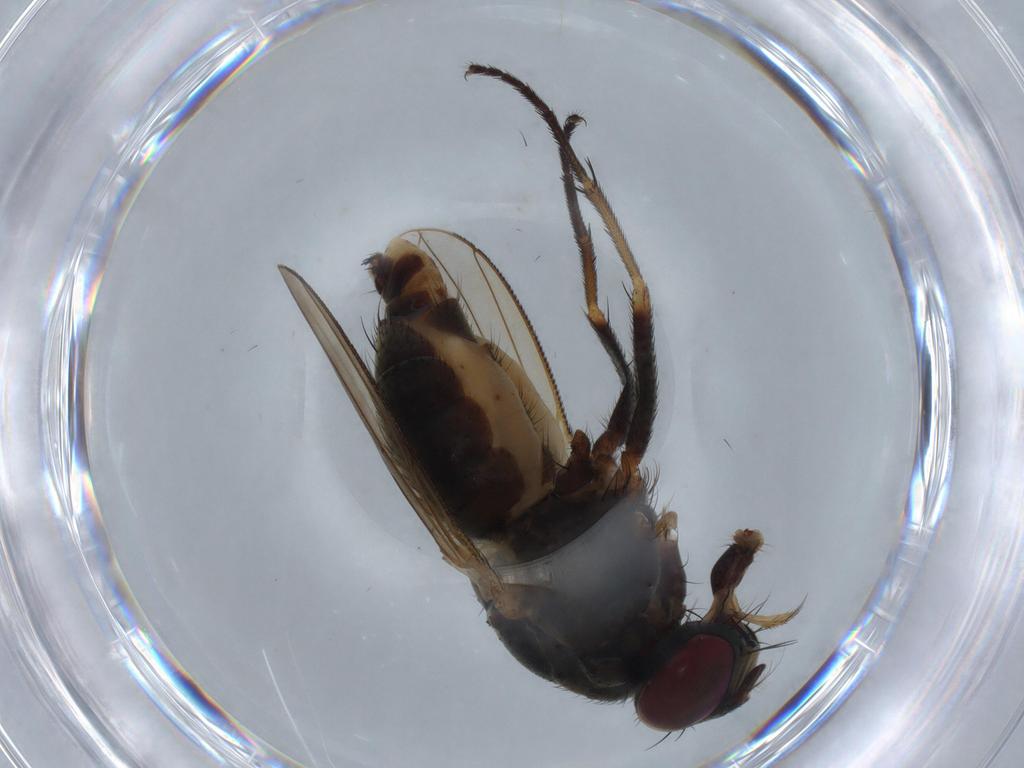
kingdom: Animalia
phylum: Arthropoda
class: Insecta
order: Diptera
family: Muscidae
